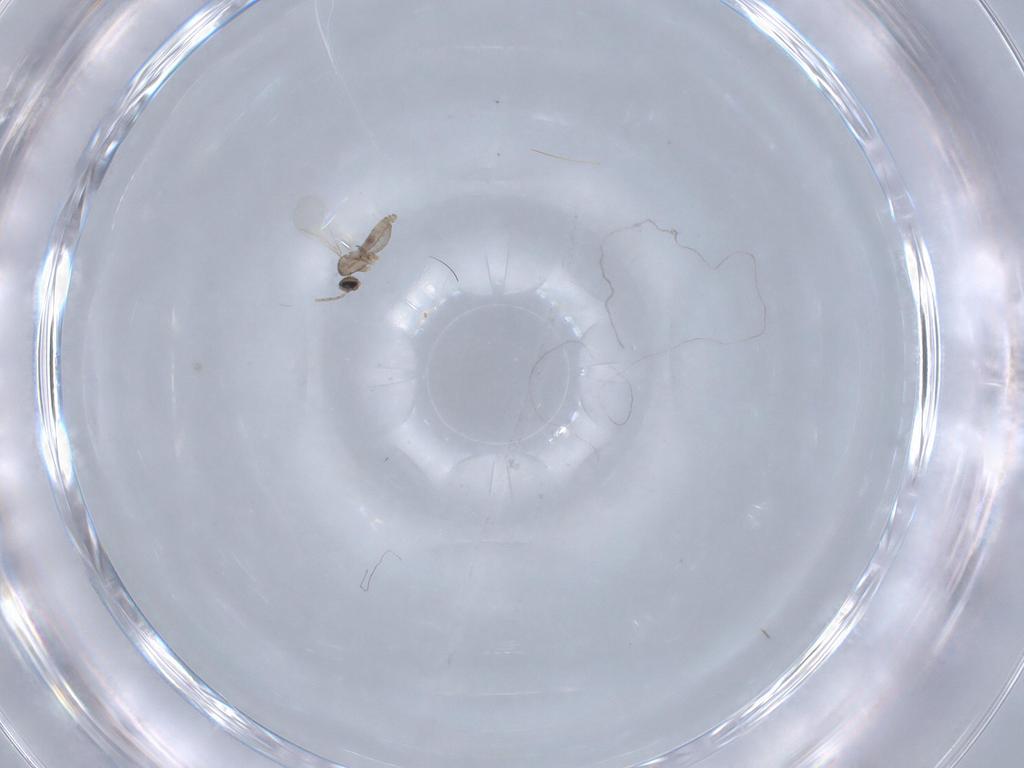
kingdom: Animalia
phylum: Arthropoda
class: Insecta
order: Diptera
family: Cecidomyiidae
